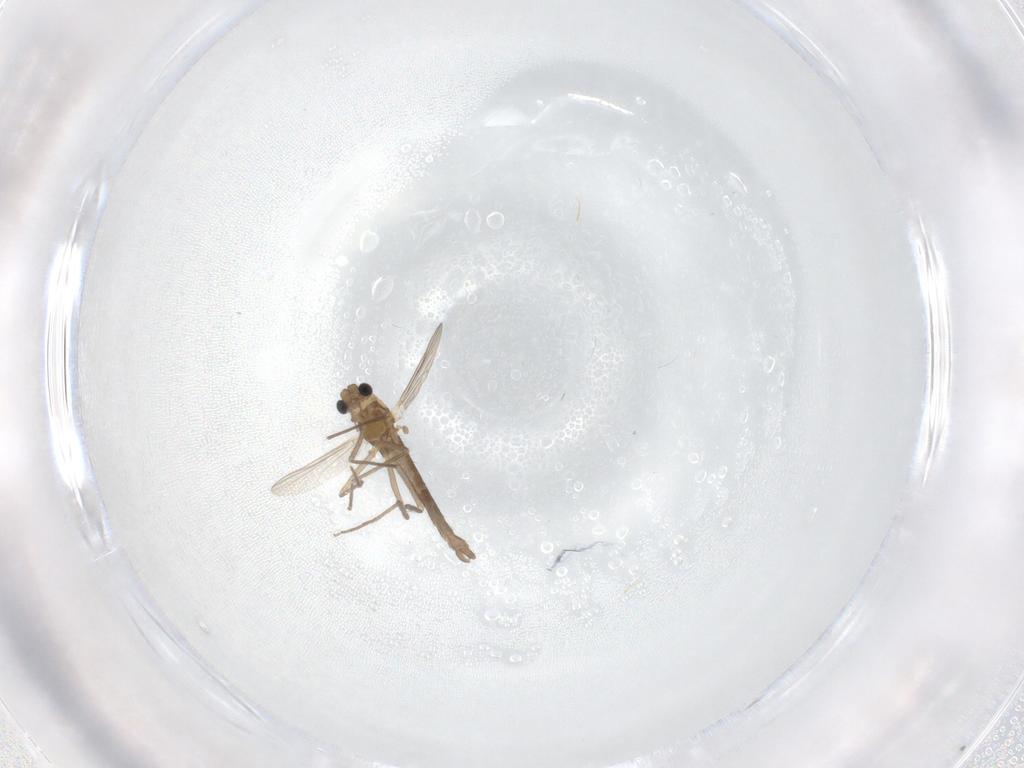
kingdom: Animalia
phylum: Arthropoda
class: Insecta
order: Diptera
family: Chironomidae
